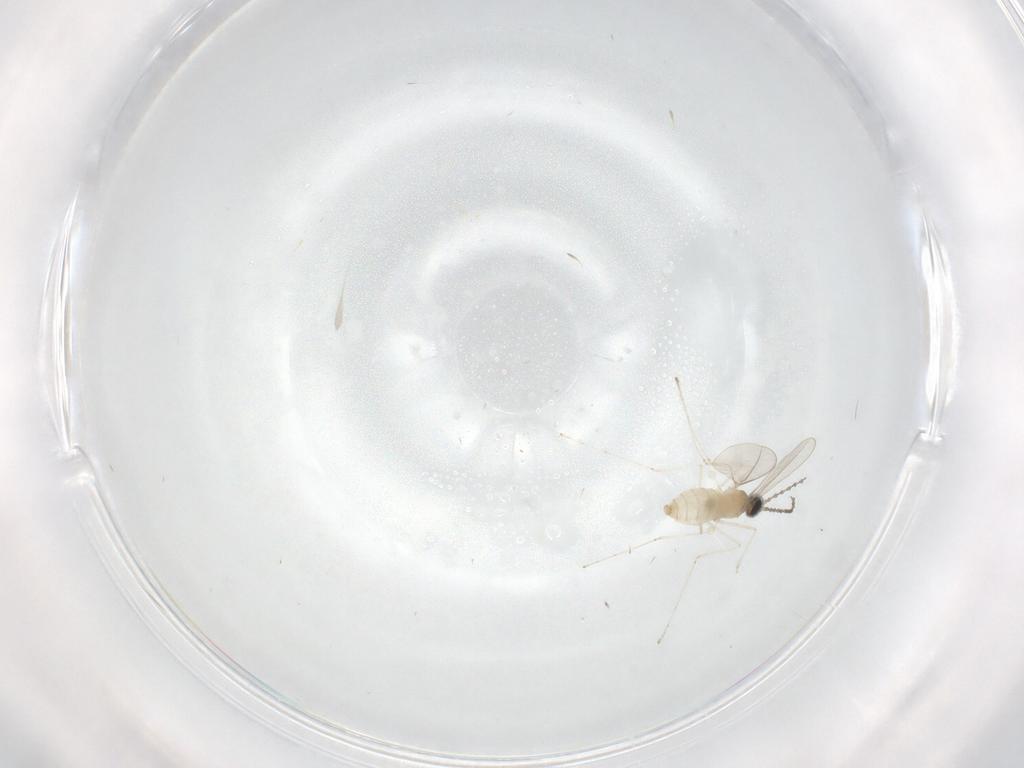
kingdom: Animalia
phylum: Arthropoda
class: Insecta
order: Diptera
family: Psychodidae
